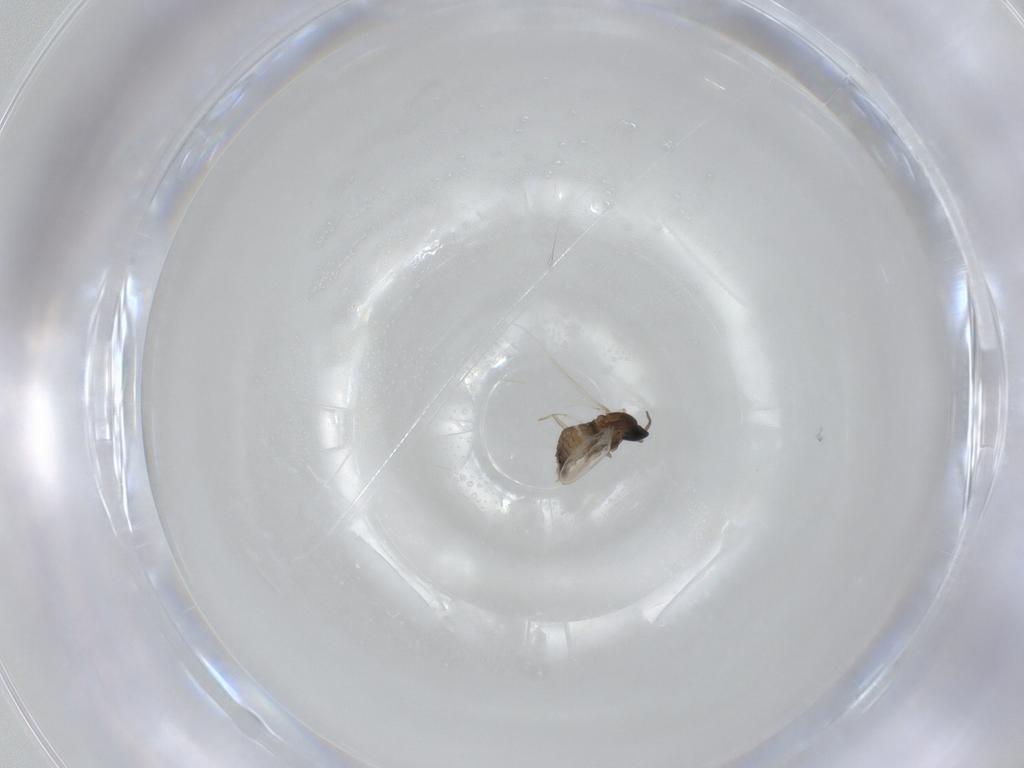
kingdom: Animalia
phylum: Arthropoda
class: Insecta
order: Diptera
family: Cecidomyiidae
